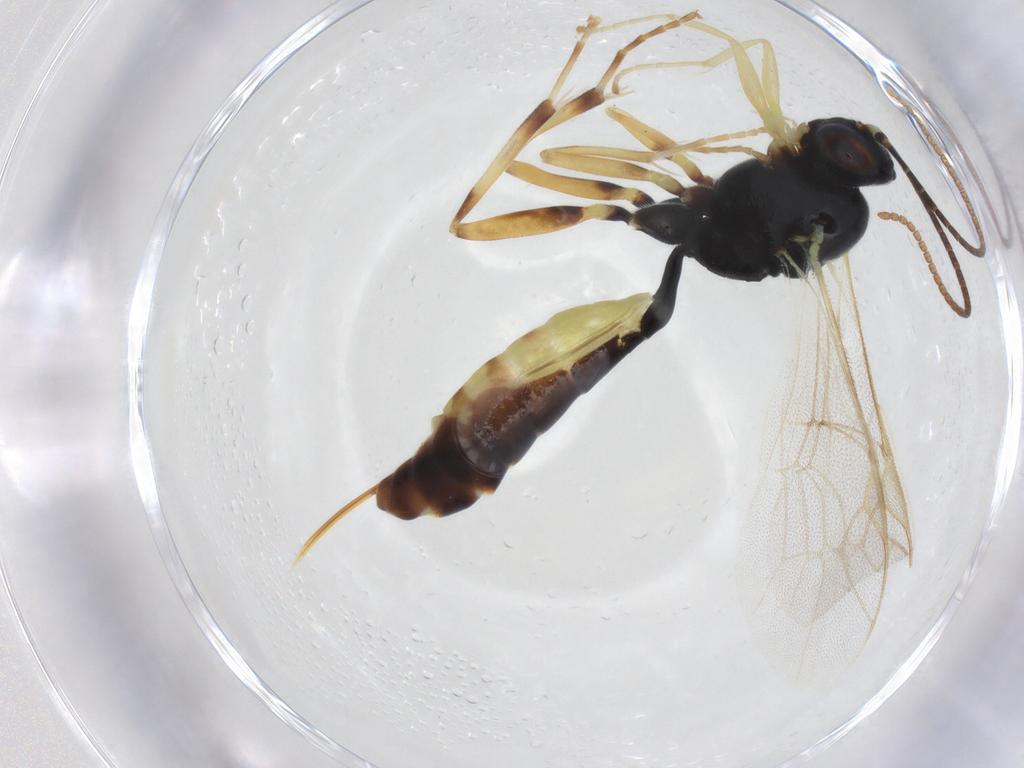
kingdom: Animalia
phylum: Arthropoda
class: Insecta
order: Hymenoptera
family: Ichneumonidae
